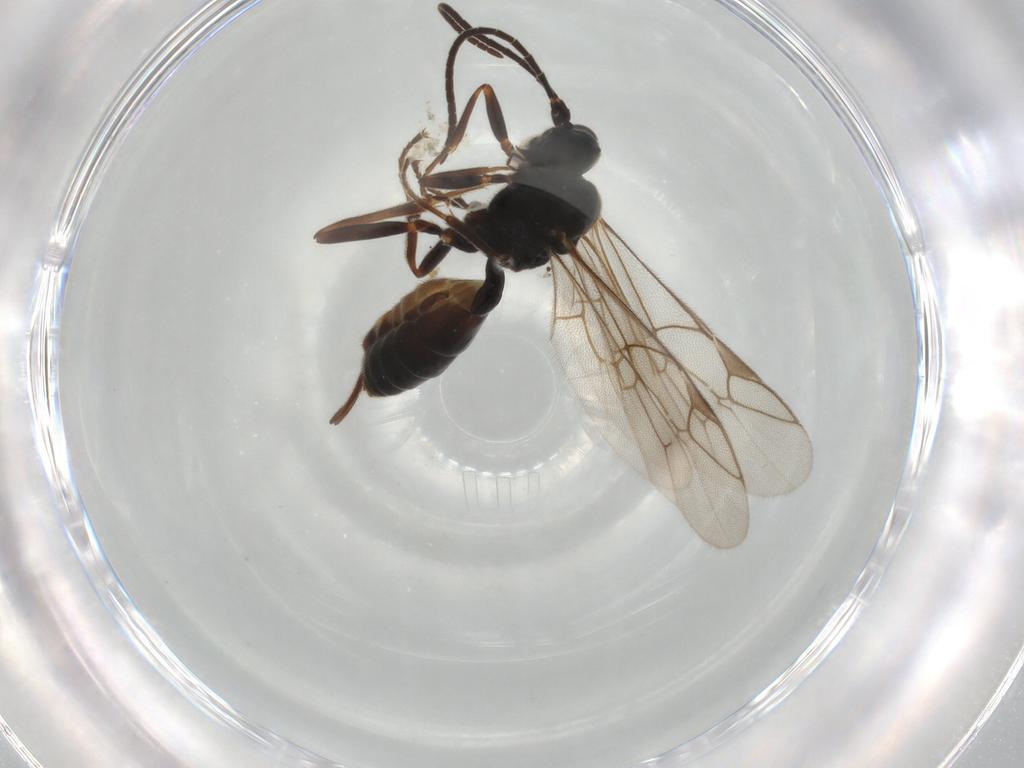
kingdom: Animalia
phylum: Arthropoda
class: Insecta
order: Hymenoptera
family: Ichneumonidae
